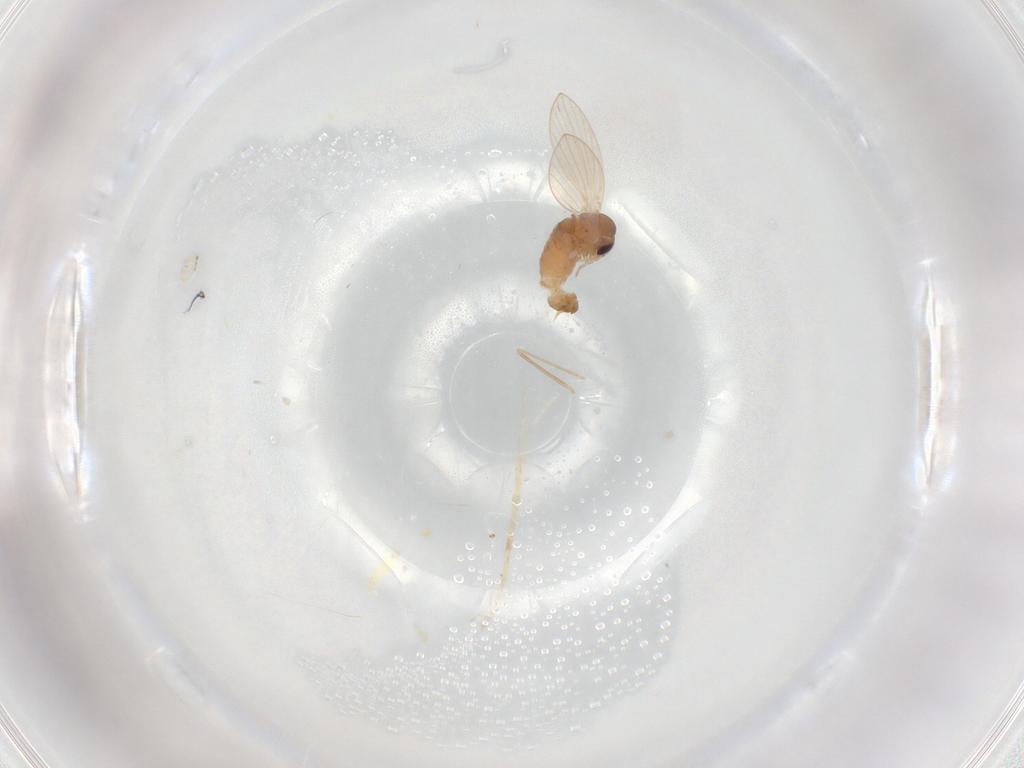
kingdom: Animalia
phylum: Arthropoda
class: Insecta
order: Diptera
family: Psychodidae
